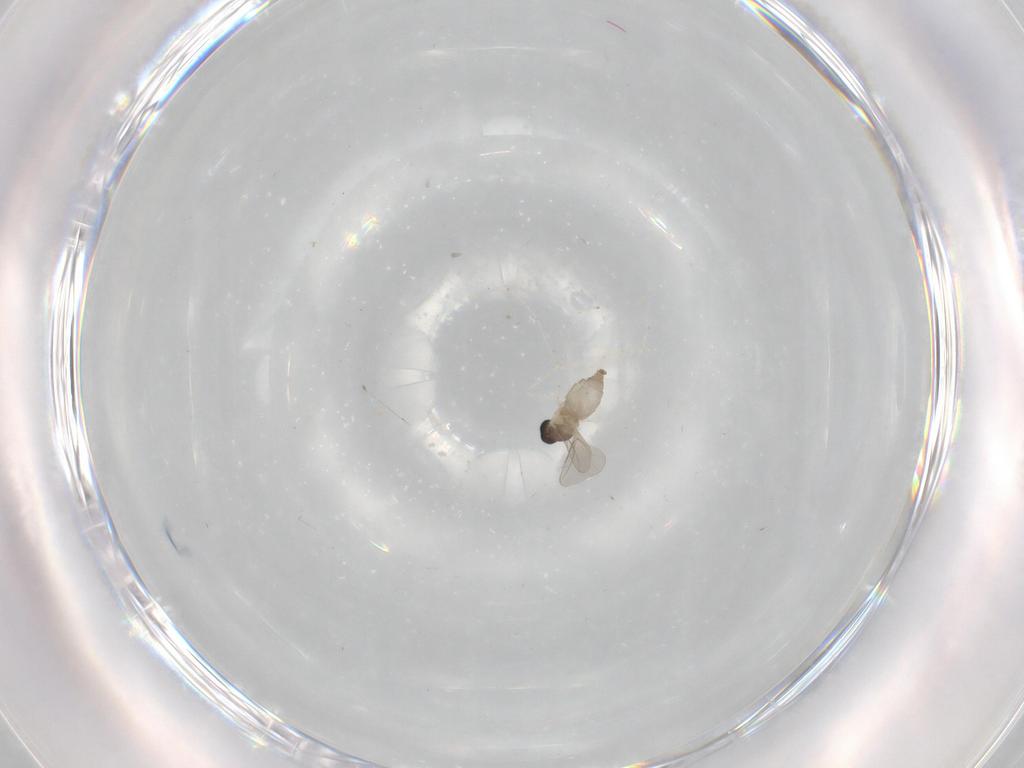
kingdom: Animalia
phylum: Arthropoda
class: Insecta
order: Diptera
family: Cecidomyiidae
